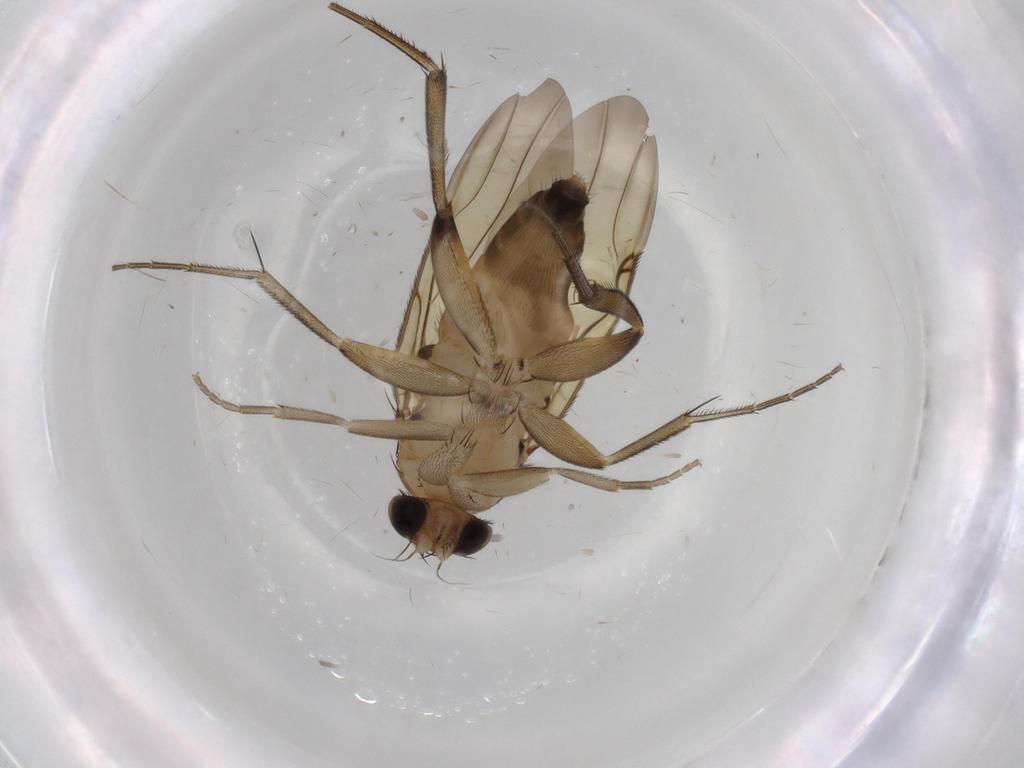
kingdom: Animalia
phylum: Arthropoda
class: Insecta
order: Diptera
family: Culicidae
